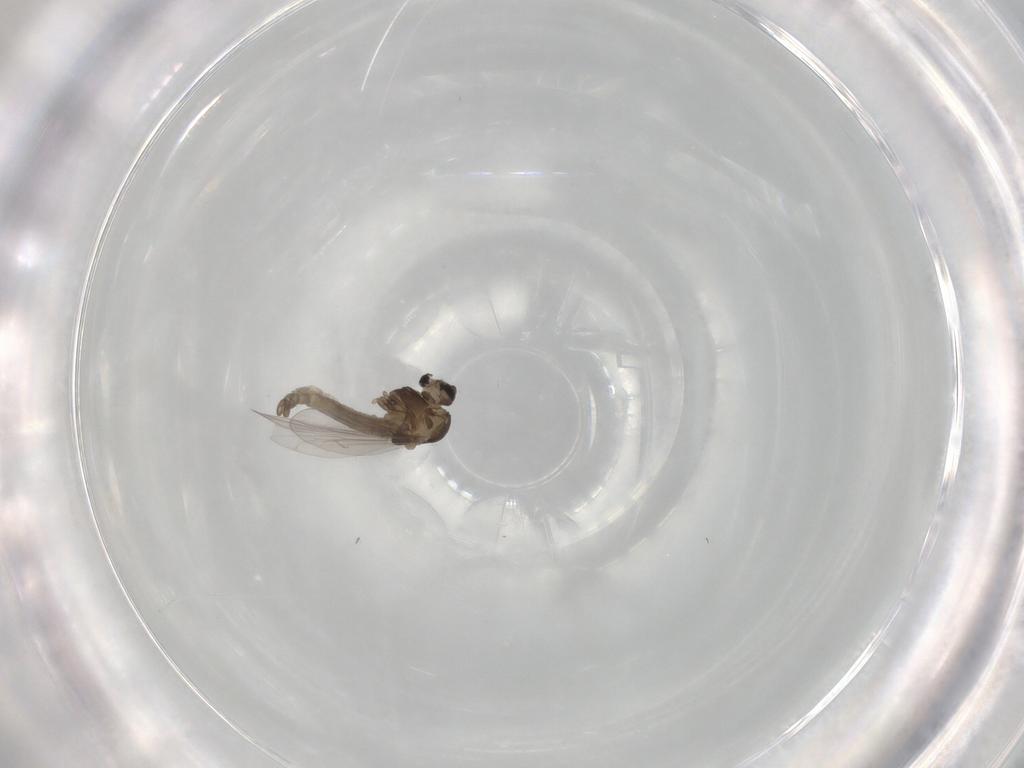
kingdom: Animalia
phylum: Arthropoda
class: Insecta
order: Diptera
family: Chironomidae
